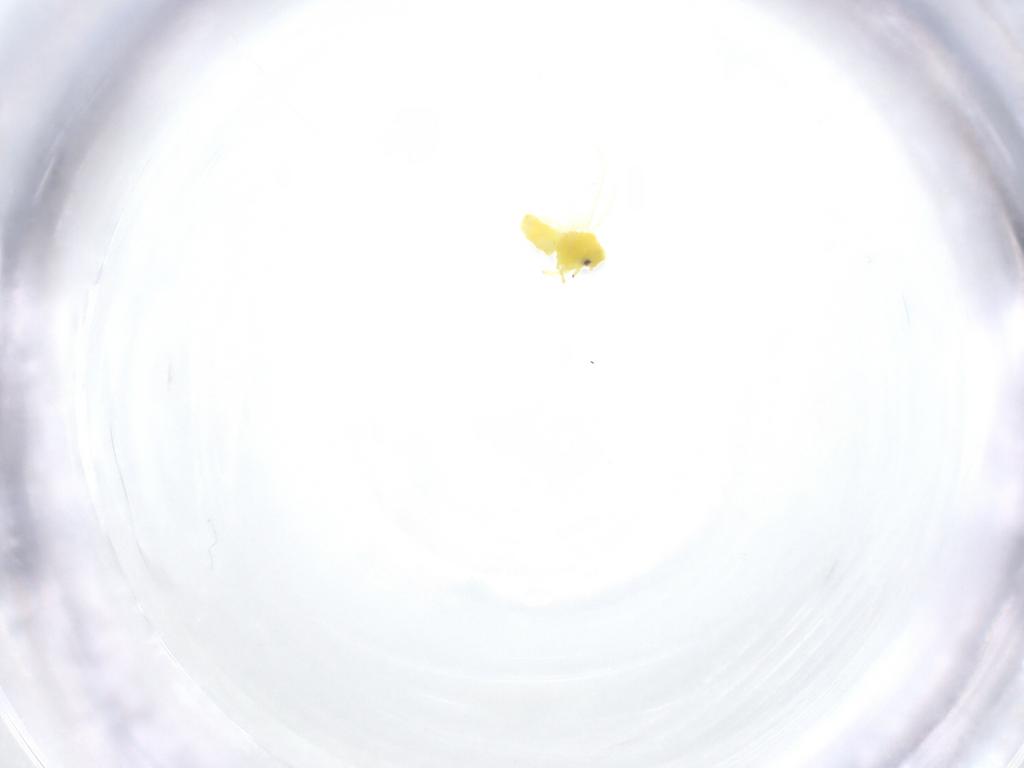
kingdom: Animalia
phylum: Arthropoda
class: Insecta
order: Hemiptera
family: Aleyrodidae
